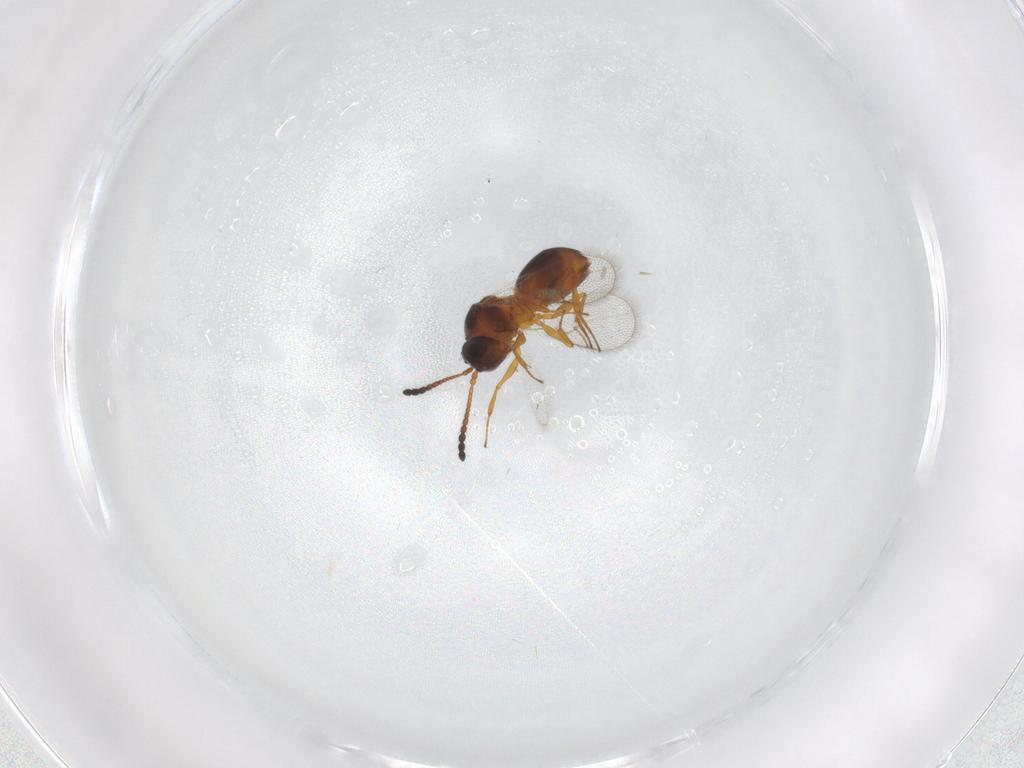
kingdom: Animalia
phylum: Arthropoda
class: Insecta
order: Hymenoptera
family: Figitidae
